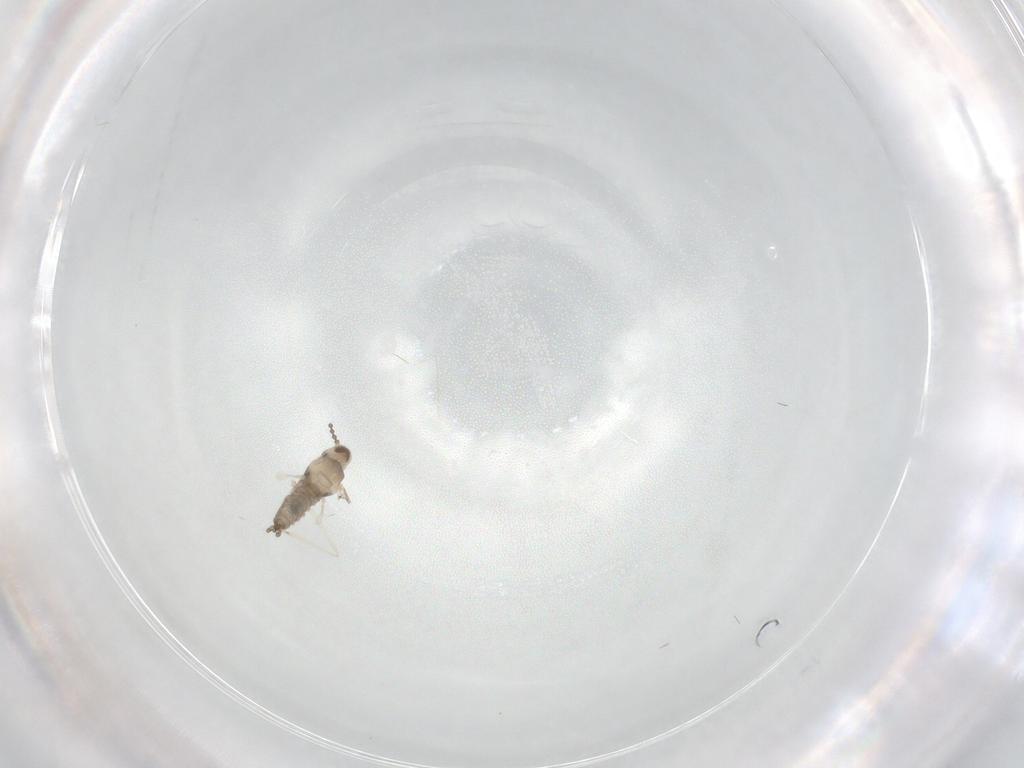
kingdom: Animalia
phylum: Arthropoda
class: Insecta
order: Diptera
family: Cecidomyiidae
